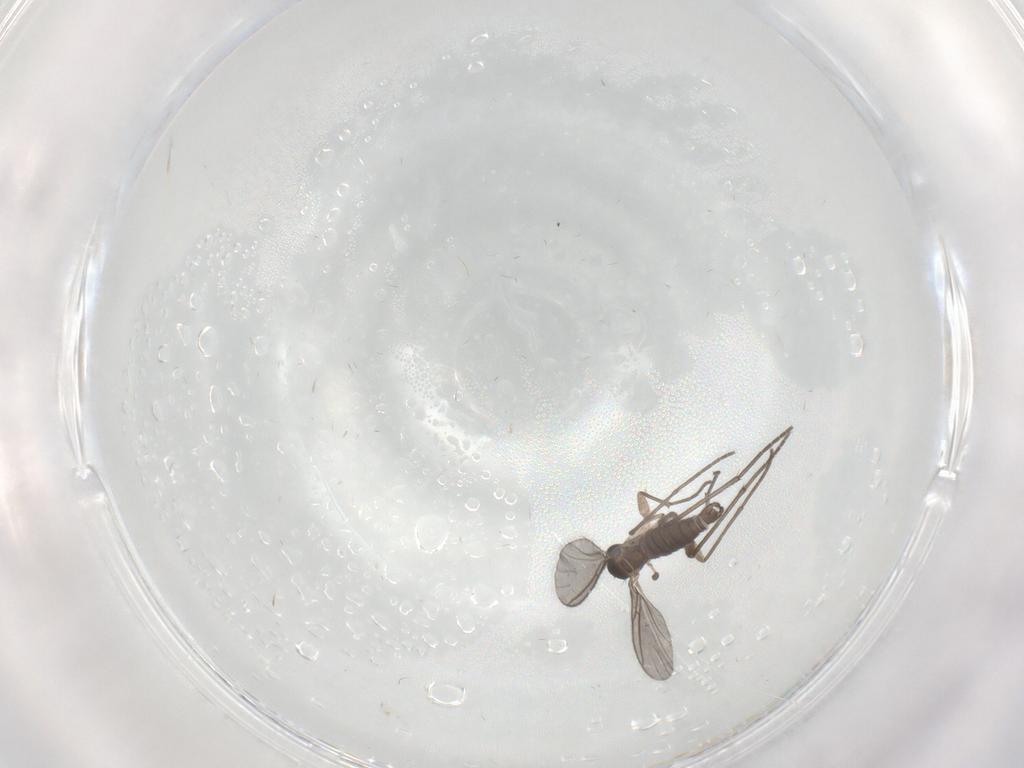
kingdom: Animalia
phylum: Arthropoda
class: Insecta
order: Diptera
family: Sciaridae
